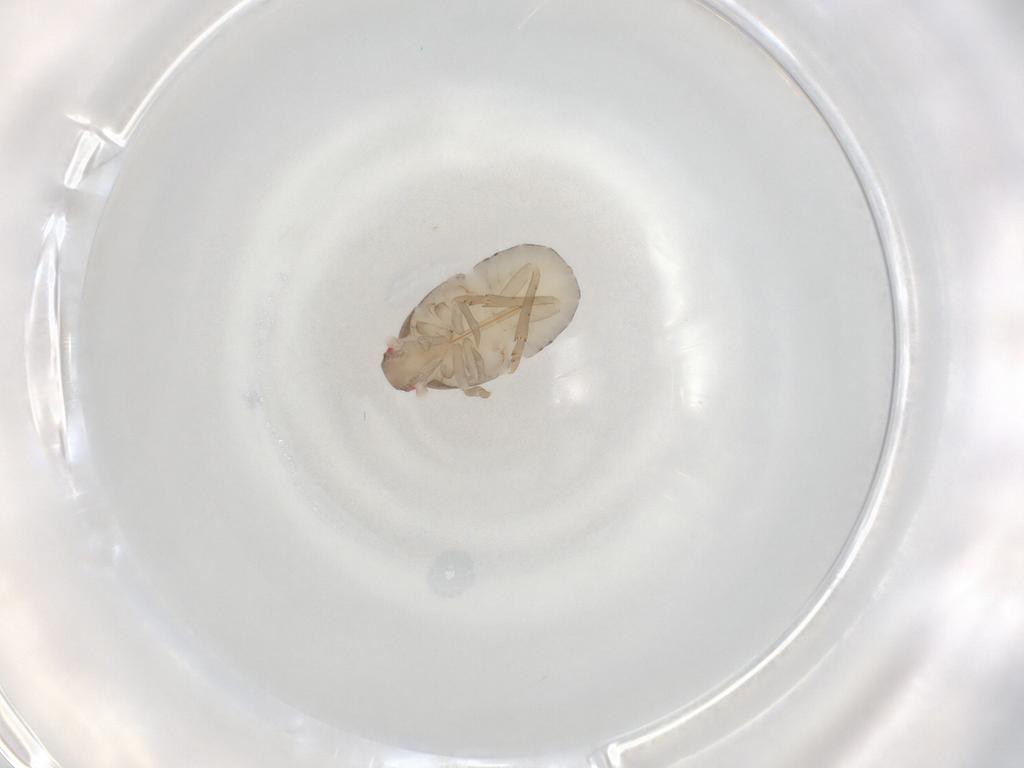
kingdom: Animalia
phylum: Arthropoda
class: Insecta
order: Hemiptera
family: Fulgoroidea_incertae_sedis
